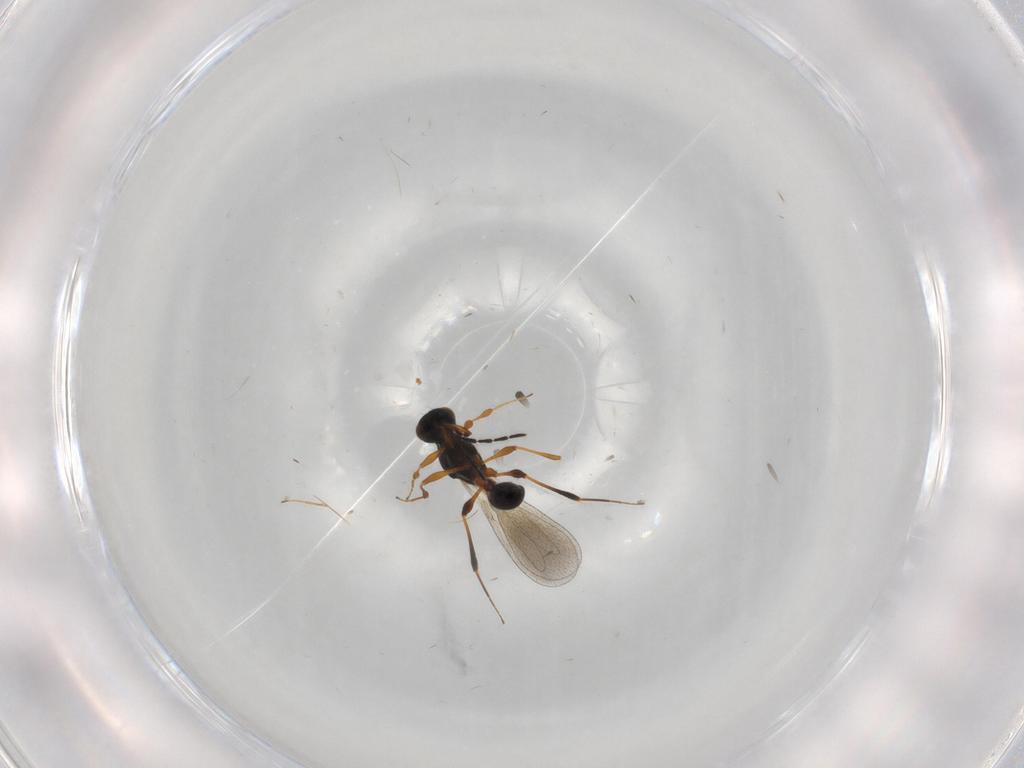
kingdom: Animalia
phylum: Arthropoda
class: Insecta
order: Hymenoptera
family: Platygastridae
